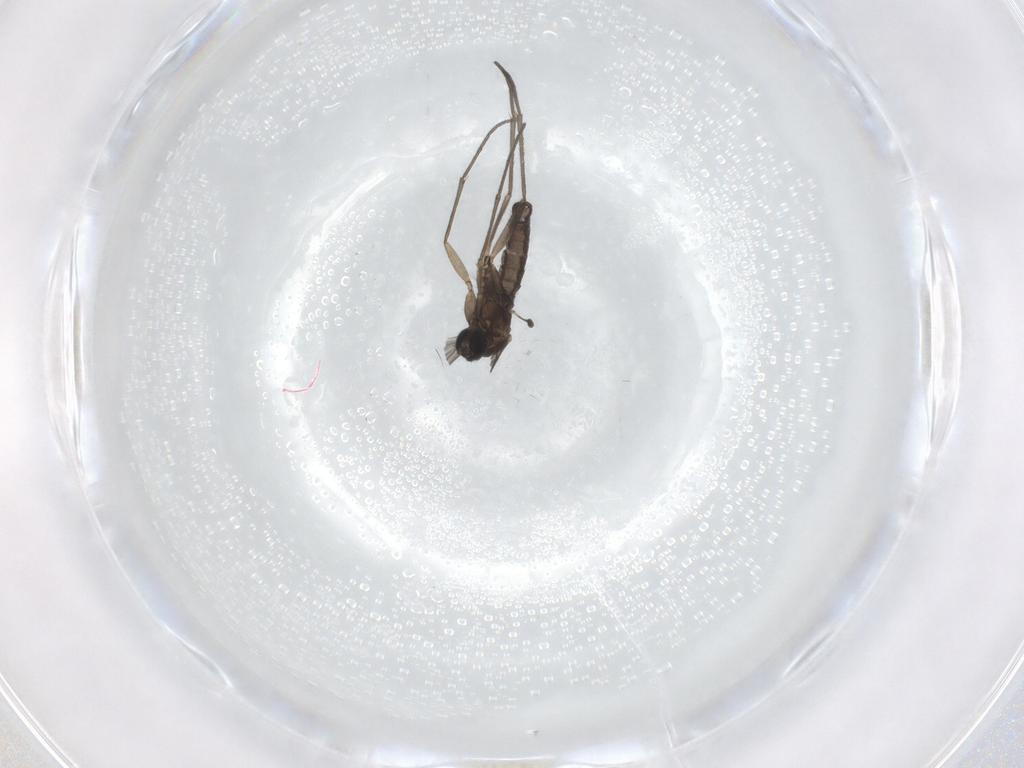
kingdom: Animalia
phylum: Arthropoda
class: Insecta
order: Diptera
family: Sciaridae
